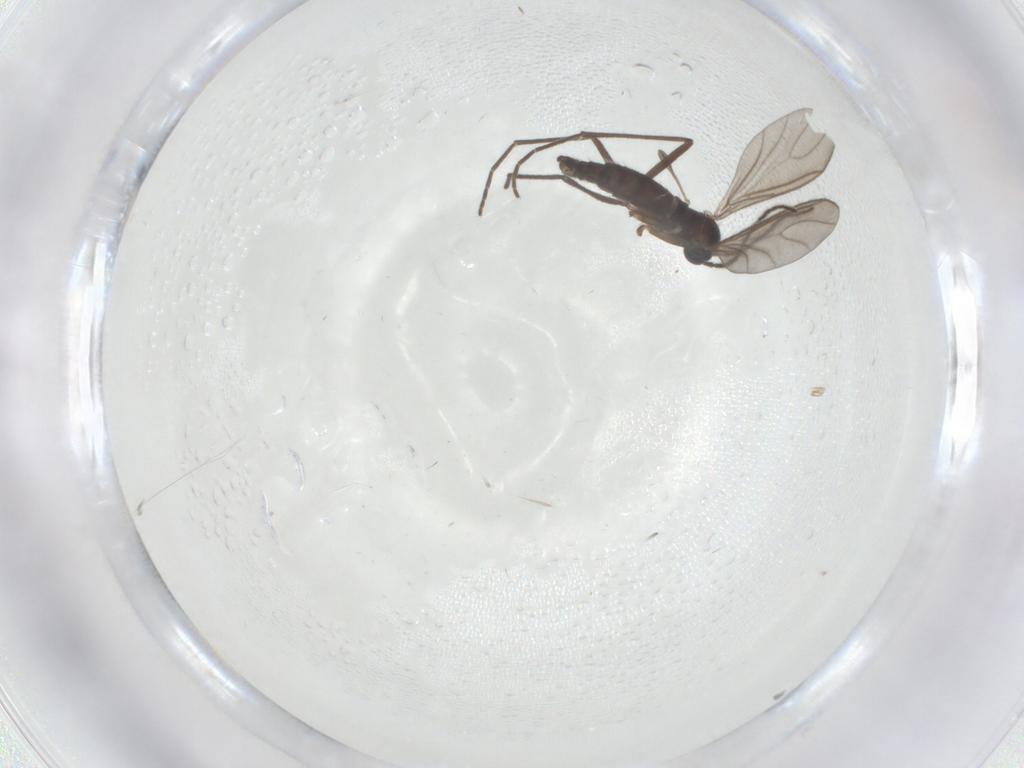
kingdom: Animalia
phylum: Arthropoda
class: Insecta
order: Diptera
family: Sciaridae
